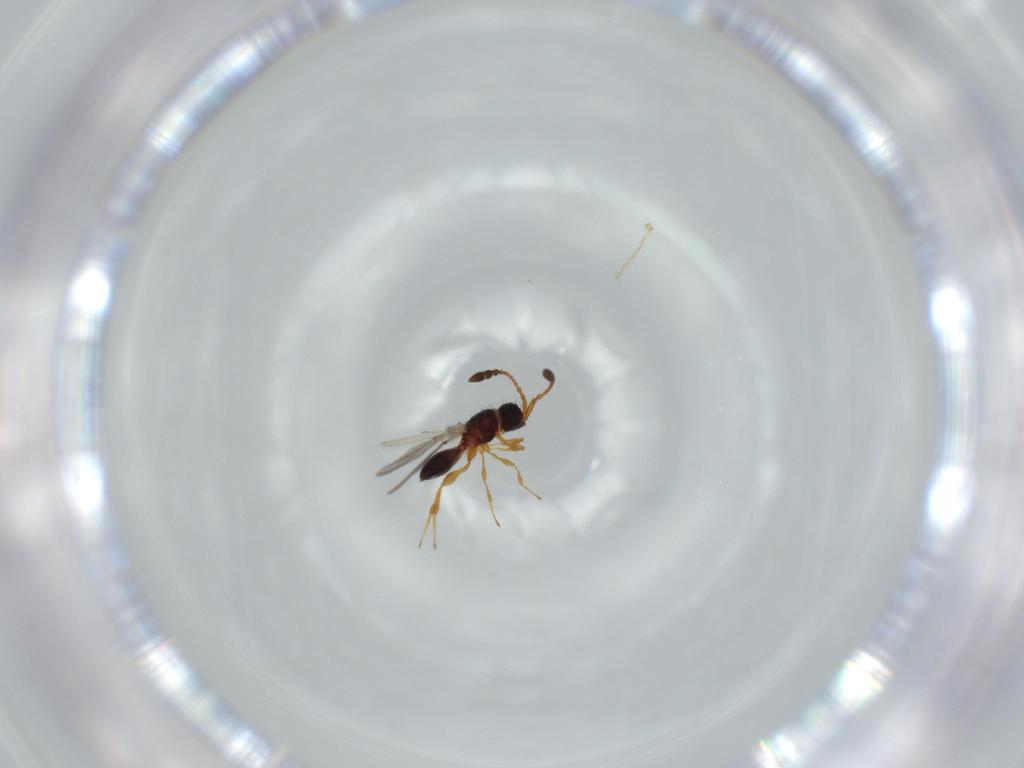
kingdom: Animalia
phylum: Arthropoda
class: Insecta
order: Hymenoptera
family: Diapriidae
